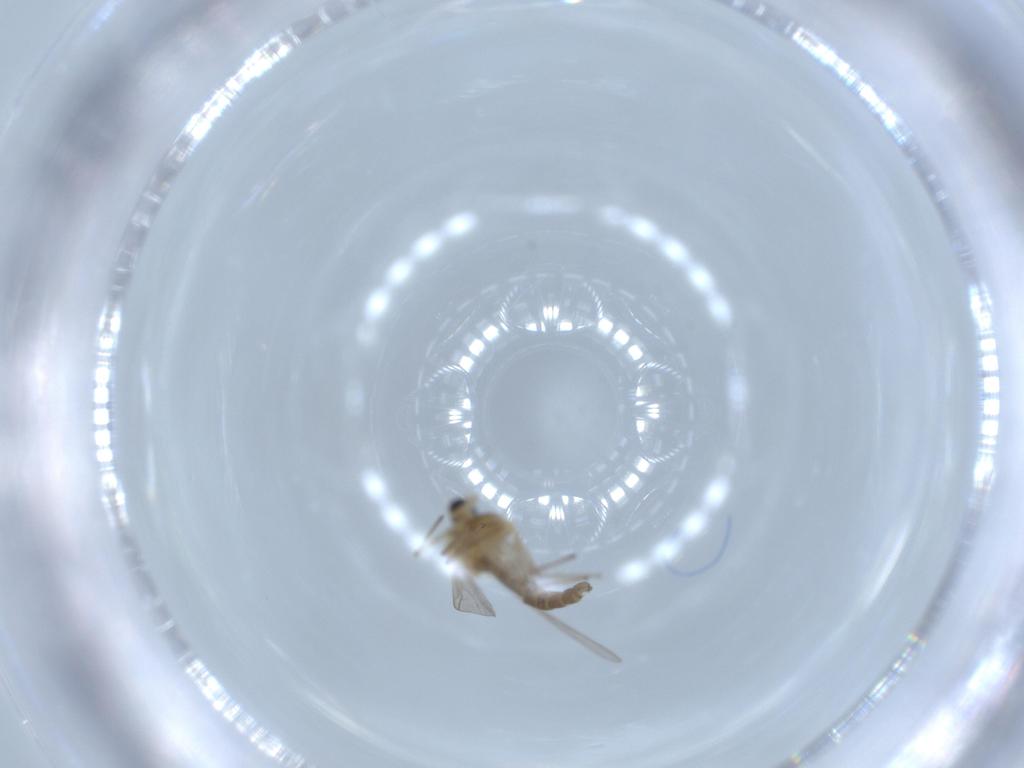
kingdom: Animalia
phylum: Arthropoda
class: Insecta
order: Diptera
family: Chironomidae
